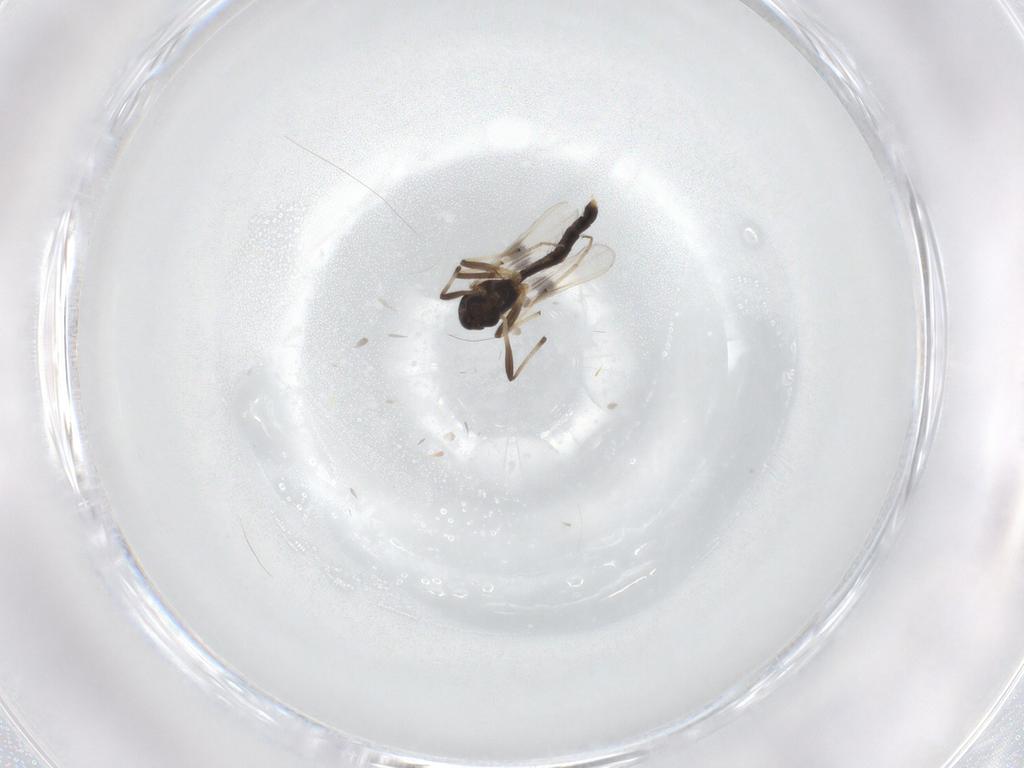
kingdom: Animalia
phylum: Arthropoda
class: Insecta
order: Diptera
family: Chironomidae
